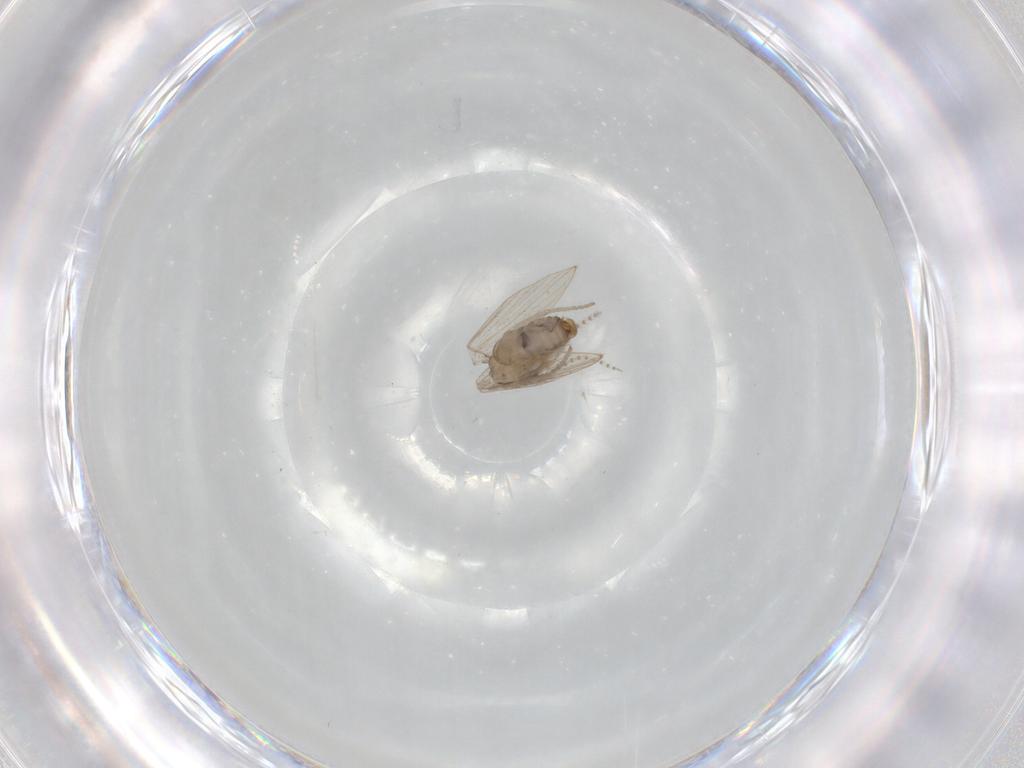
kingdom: Animalia
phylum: Arthropoda
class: Insecta
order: Diptera
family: Psychodidae
